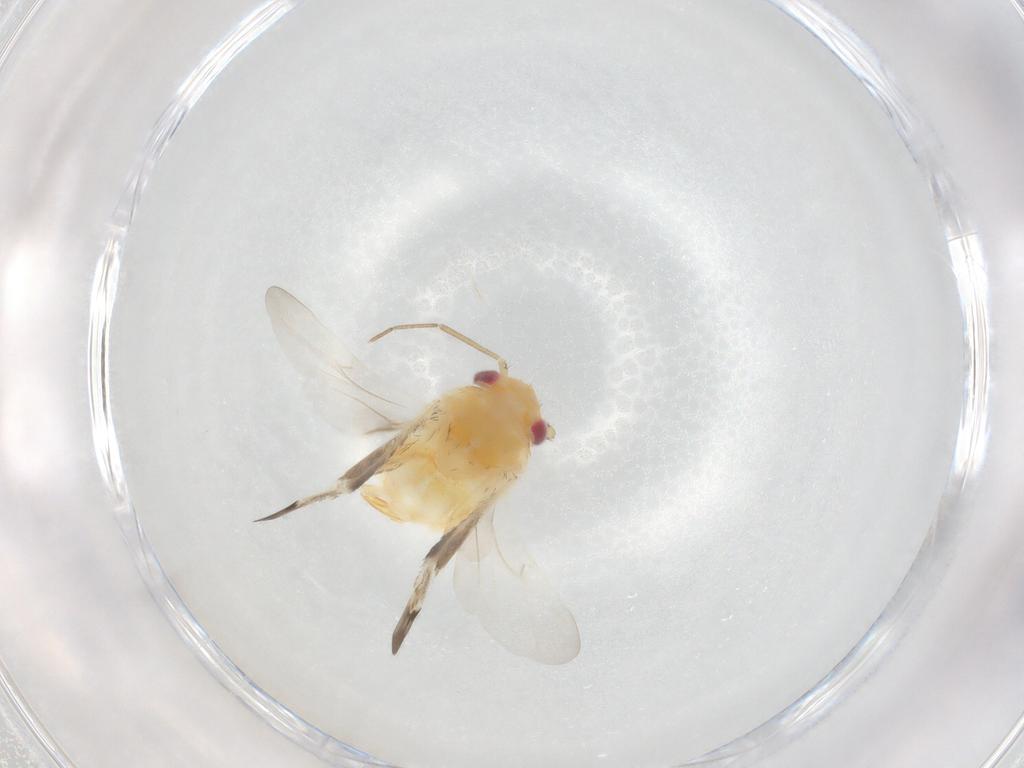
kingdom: Animalia
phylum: Arthropoda
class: Insecta
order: Hemiptera
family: Miridae
